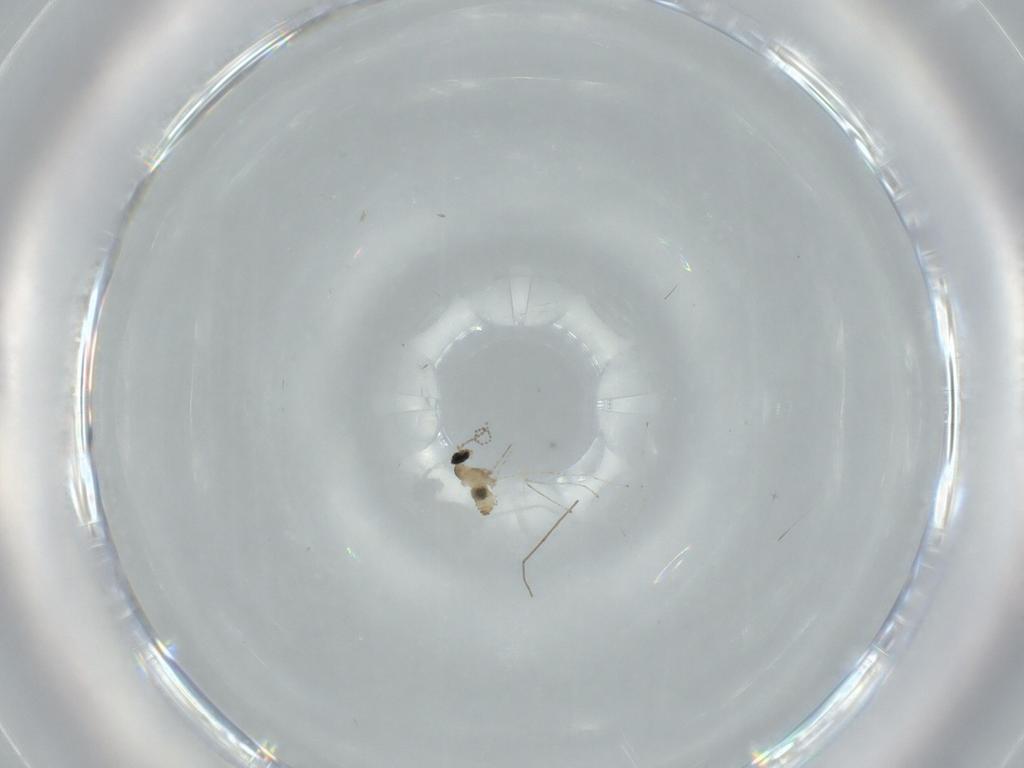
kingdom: Animalia
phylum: Arthropoda
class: Insecta
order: Diptera
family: Cecidomyiidae
